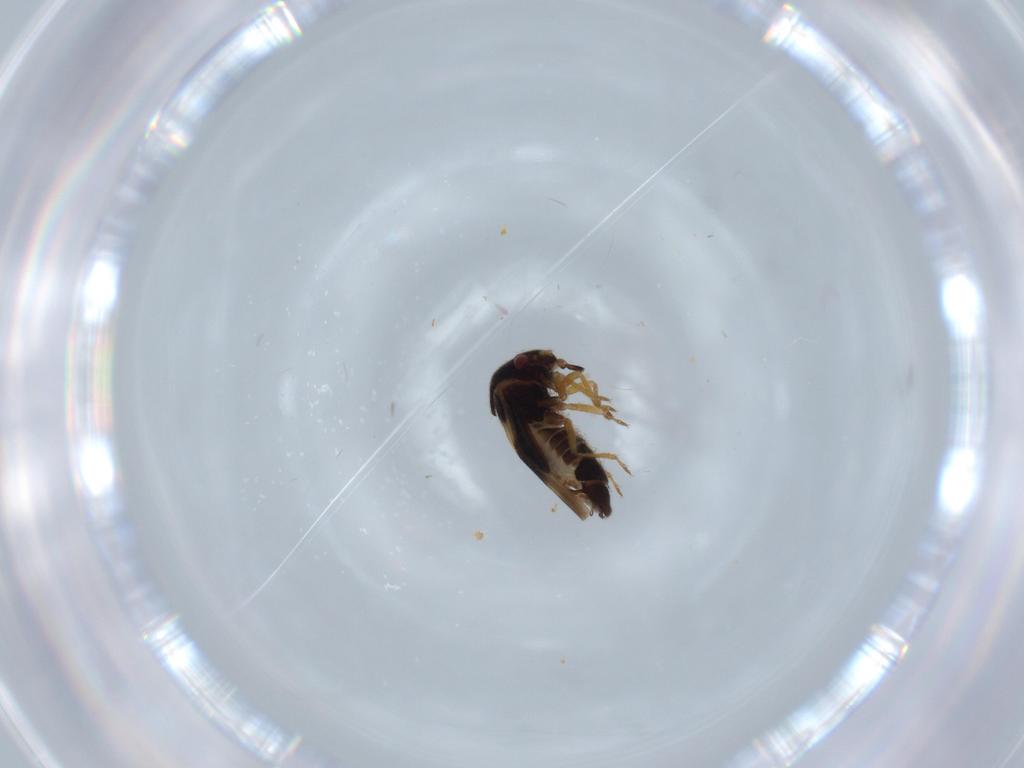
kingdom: Animalia
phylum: Arthropoda
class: Insecta
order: Hemiptera
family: Schizopteridae
